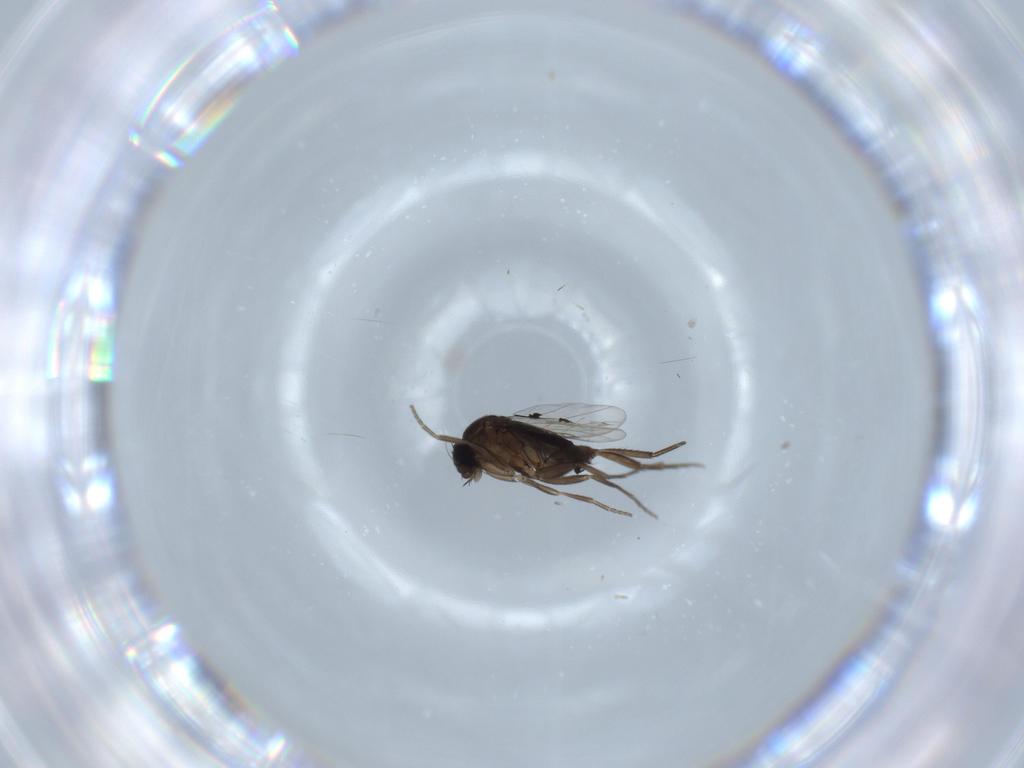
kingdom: Animalia
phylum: Arthropoda
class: Insecta
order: Diptera
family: Phoridae
